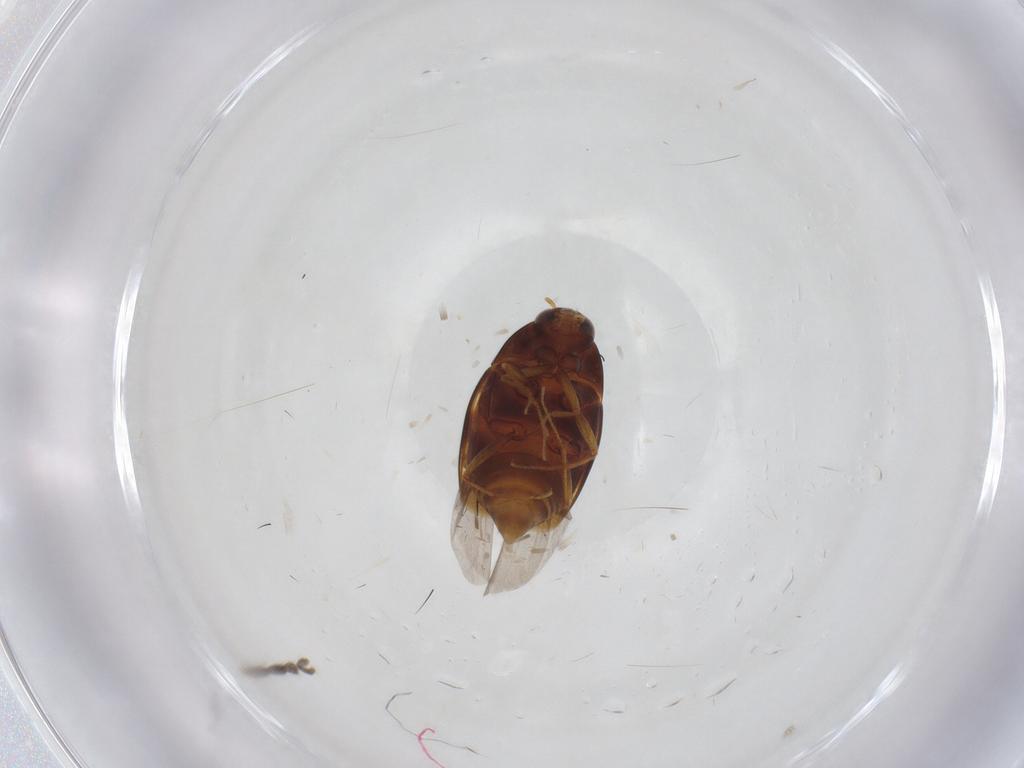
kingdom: Animalia
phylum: Arthropoda
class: Insecta
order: Coleoptera
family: Staphylinidae
